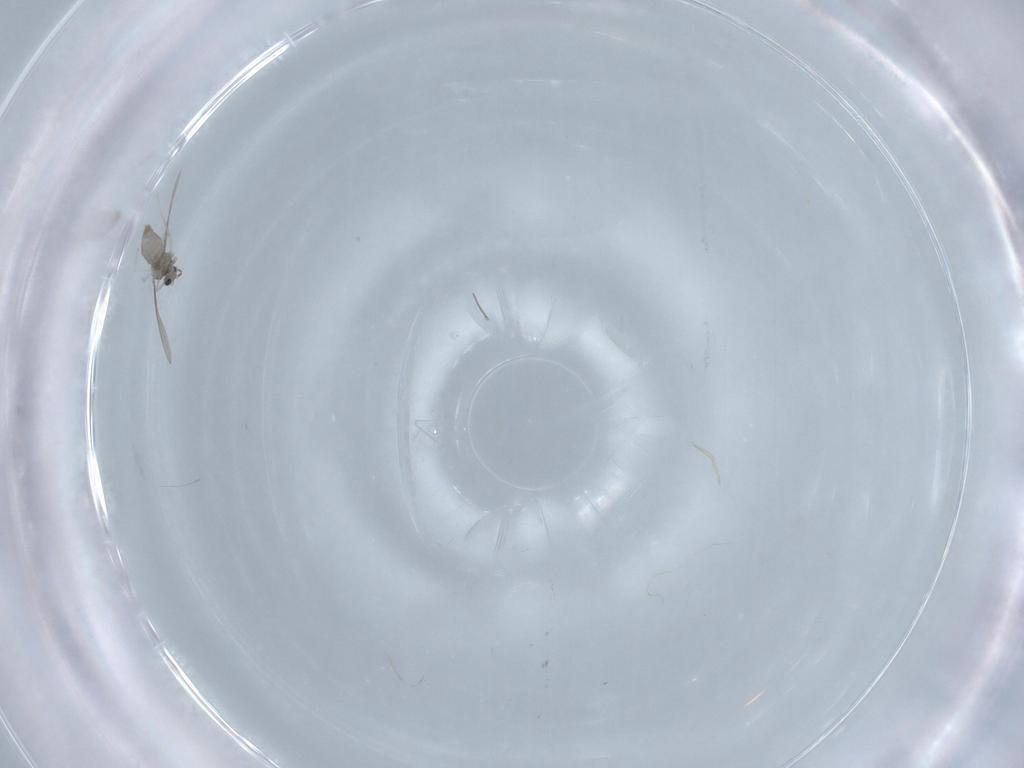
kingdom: Animalia
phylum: Arthropoda
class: Insecta
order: Diptera
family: Cecidomyiidae
